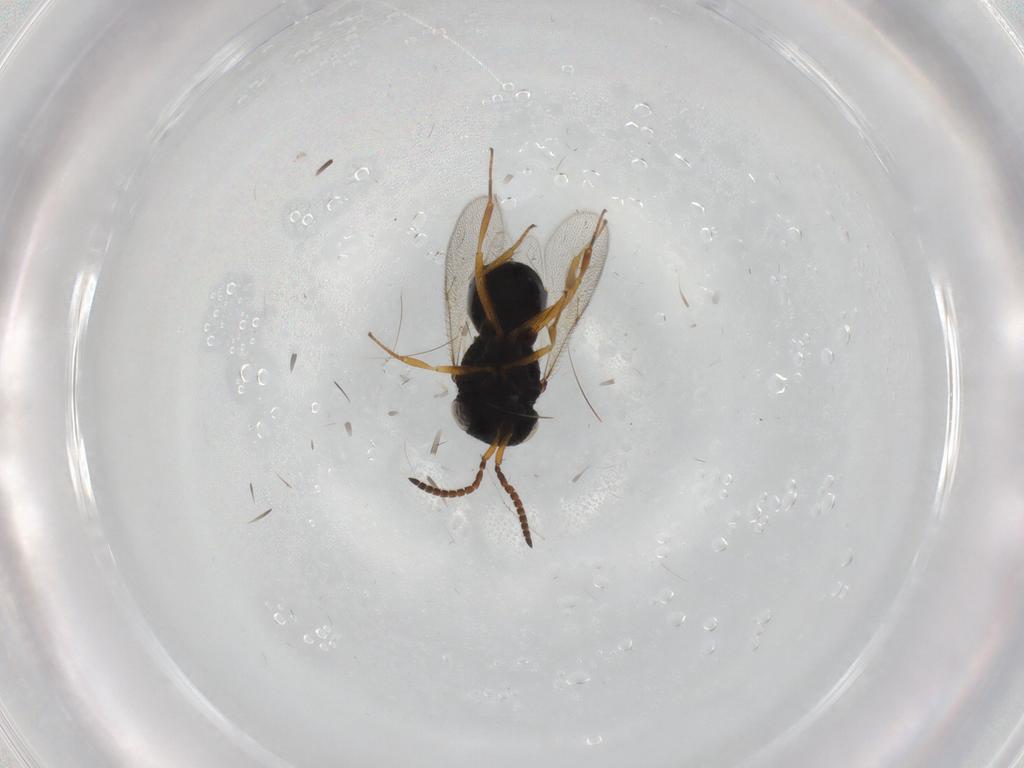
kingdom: Animalia
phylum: Arthropoda
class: Insecta
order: Hymenoptera
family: Scelionidae
